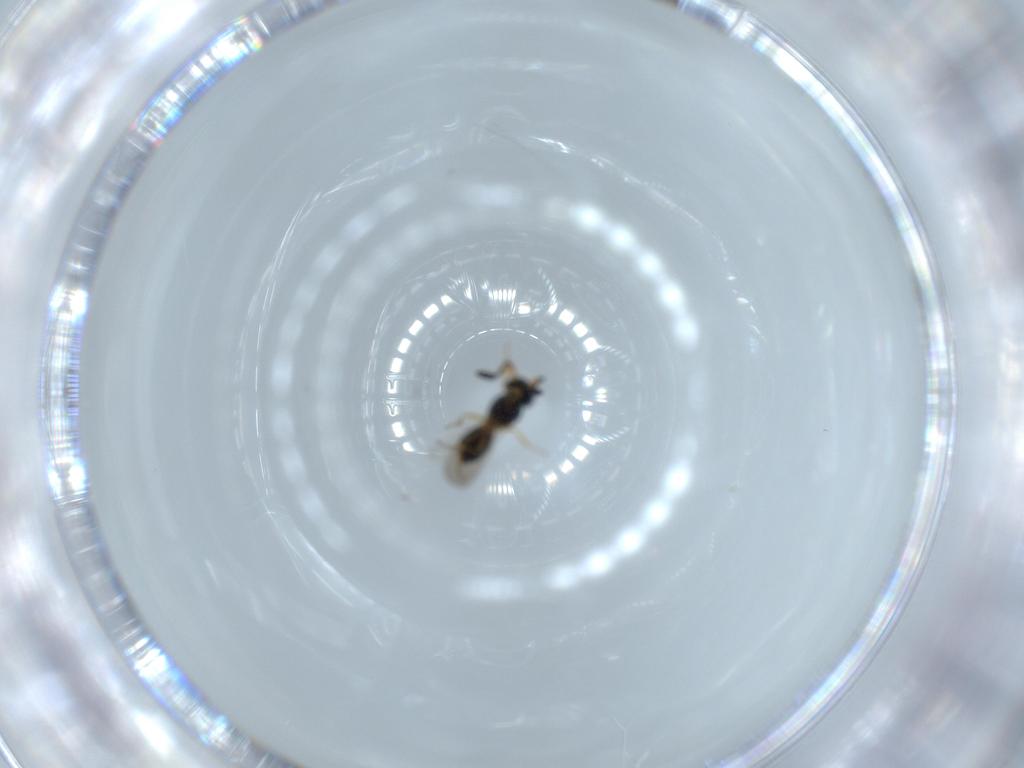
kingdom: Animalia
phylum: Arthropoda
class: Insecta
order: Hymenoptera
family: Scelionidae
